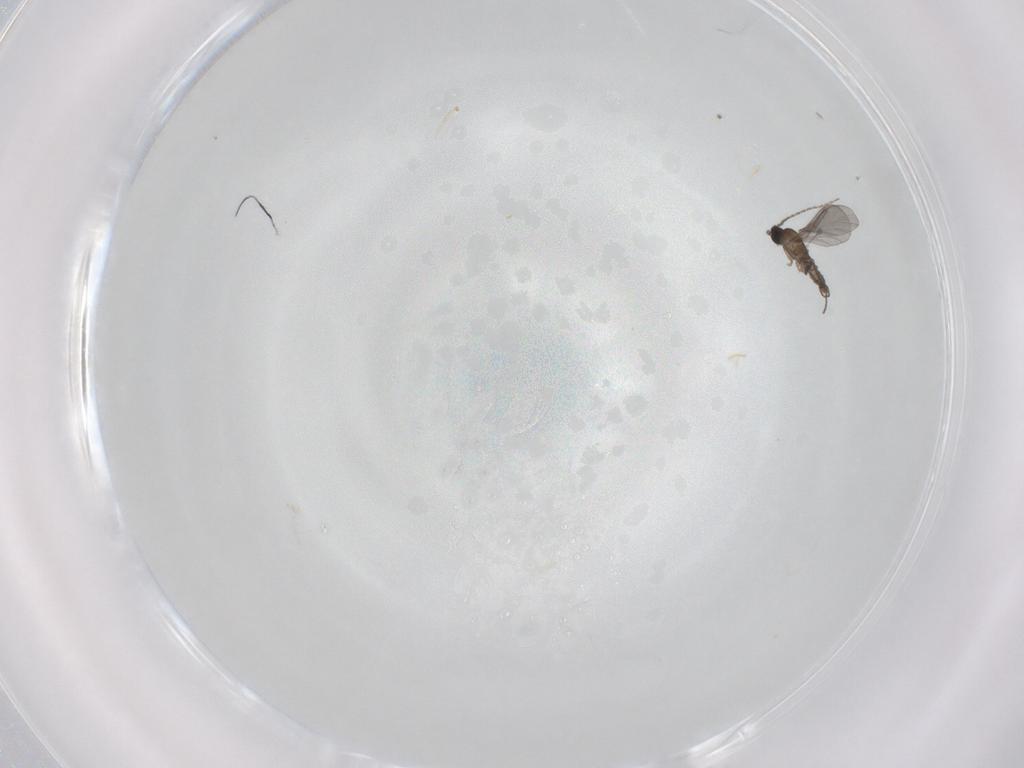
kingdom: Animalia
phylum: Arthropoda
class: Insecta
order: Diptera
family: Sciaridae
